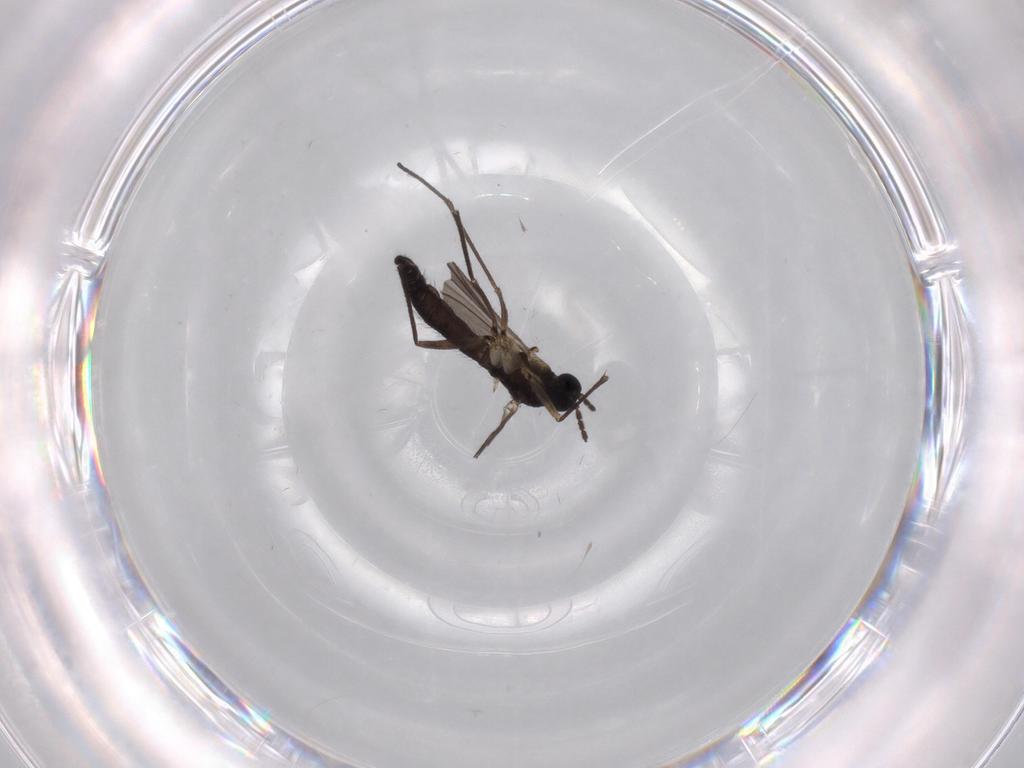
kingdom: Animalia
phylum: Arthropoda
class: Insecta
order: Diptera
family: Sciaridae
